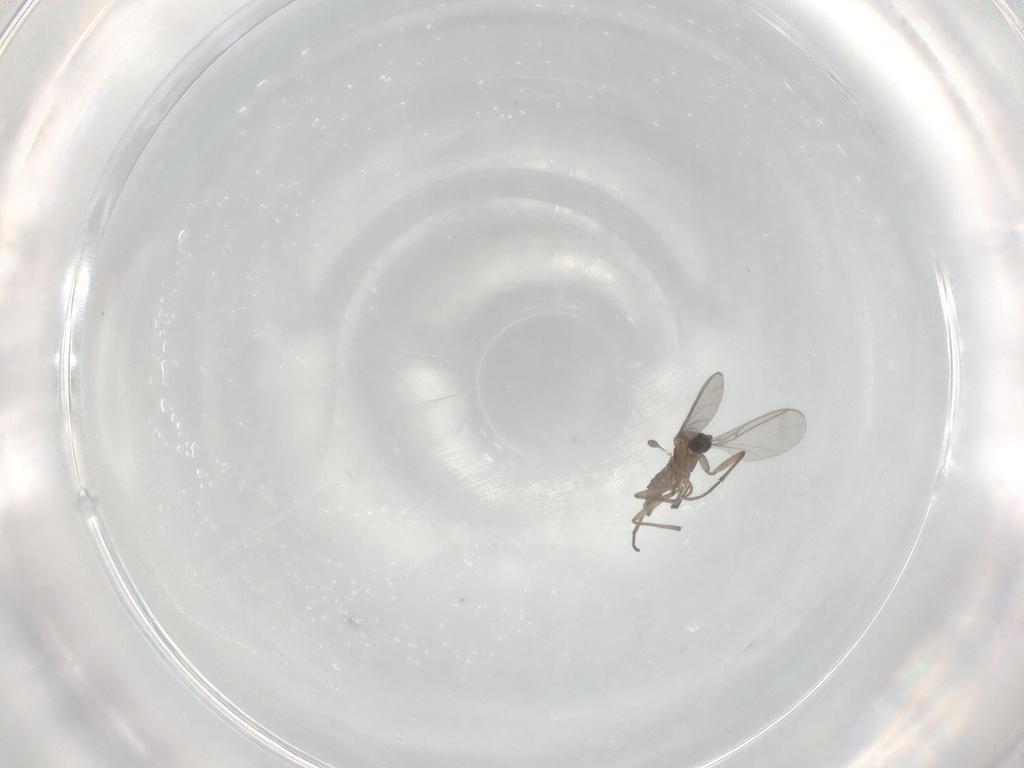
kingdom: Animalia
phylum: Arthropoda
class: Insecta
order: Diptera
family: Sciaridae
